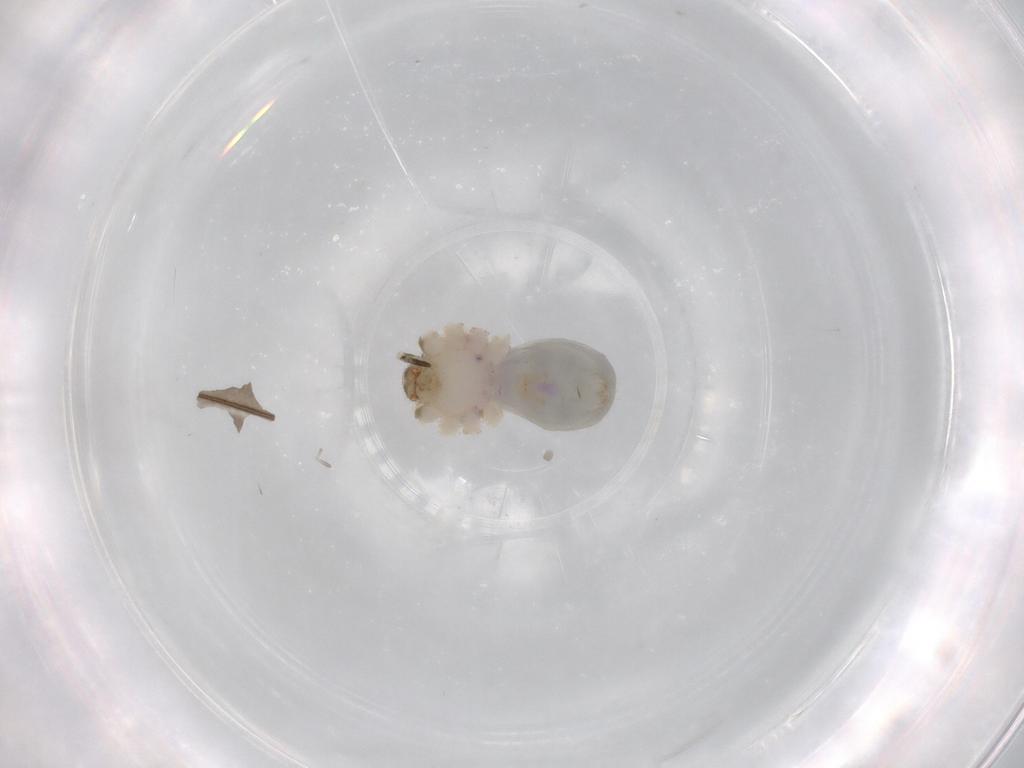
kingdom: Animalia
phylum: Arthropoda
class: Arachnida
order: Araneae
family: Pholcidae
